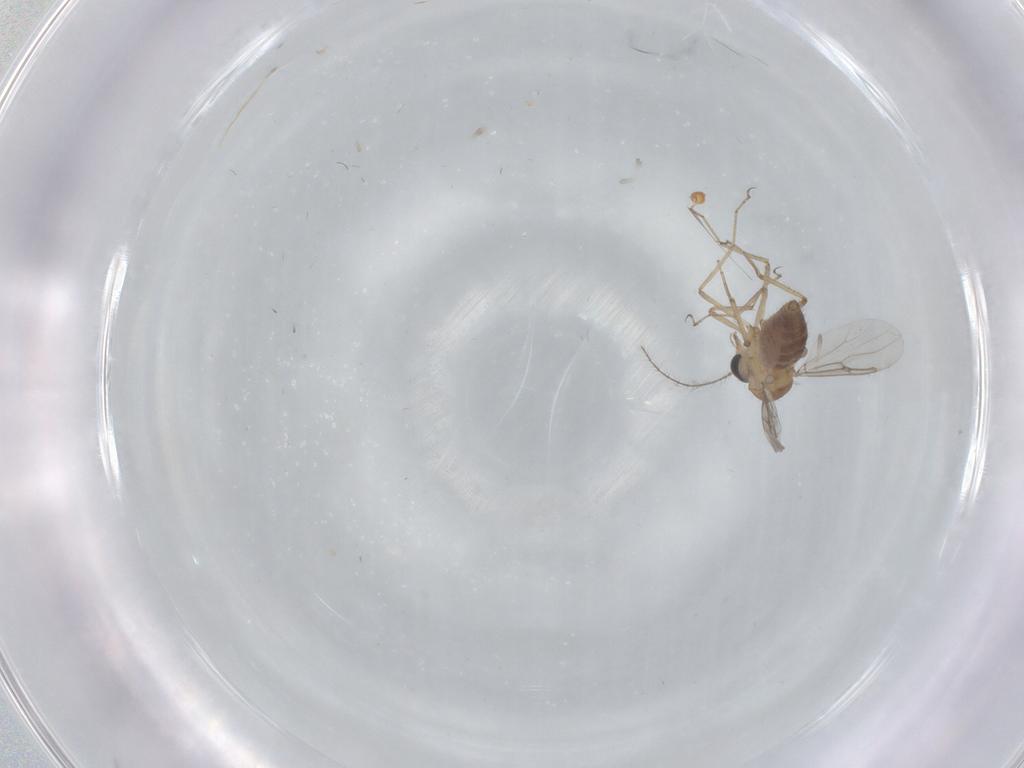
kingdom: Animalia
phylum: Arthropoda
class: Insecta
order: Diptera
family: Ceratopogonidae
